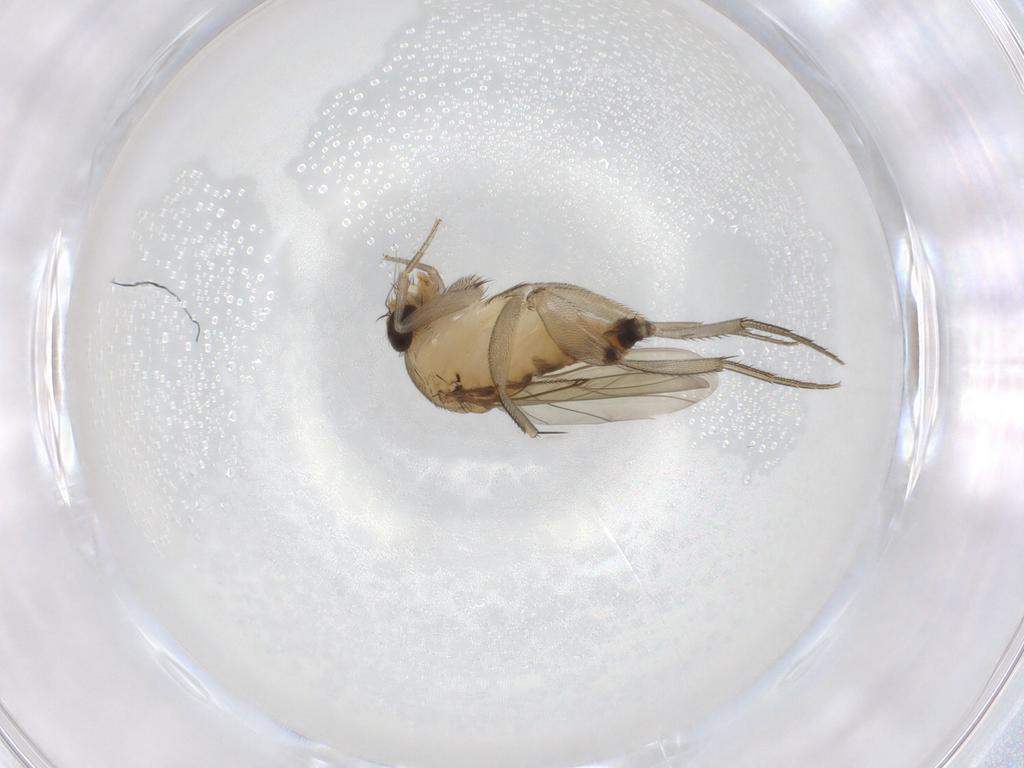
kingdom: Animalia
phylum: Arthropoda
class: Insecta
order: Diptera
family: Phoridae
